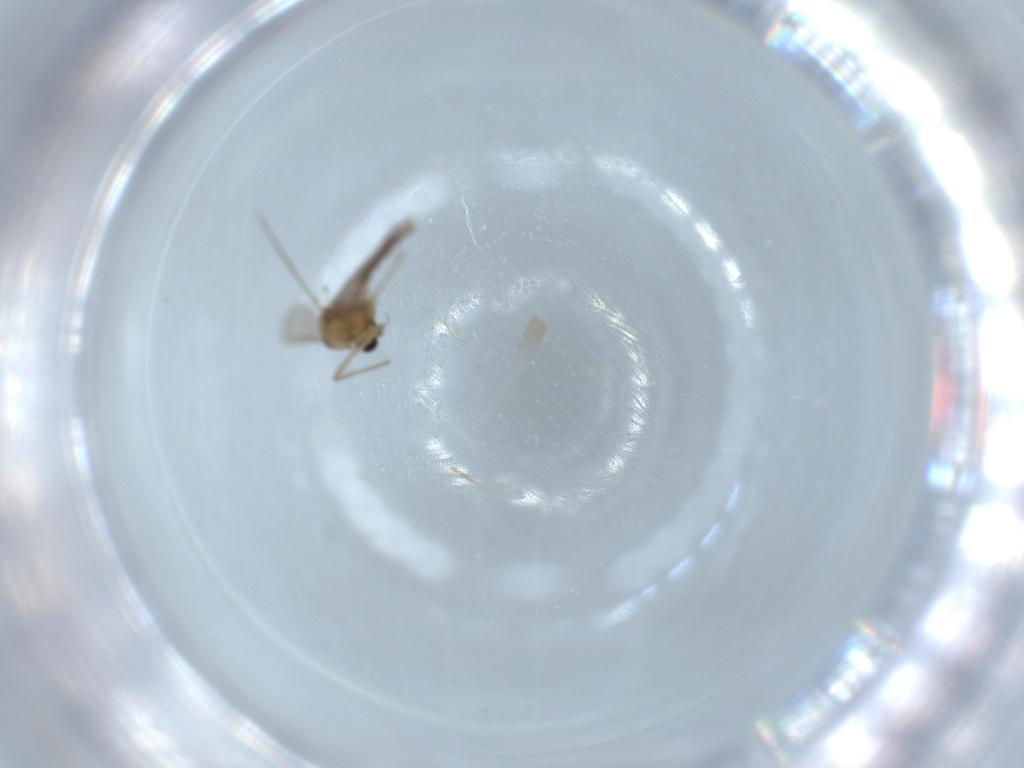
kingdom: Animalia
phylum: Arthropoda
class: Insecta
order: Diptera
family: Chironomidae
